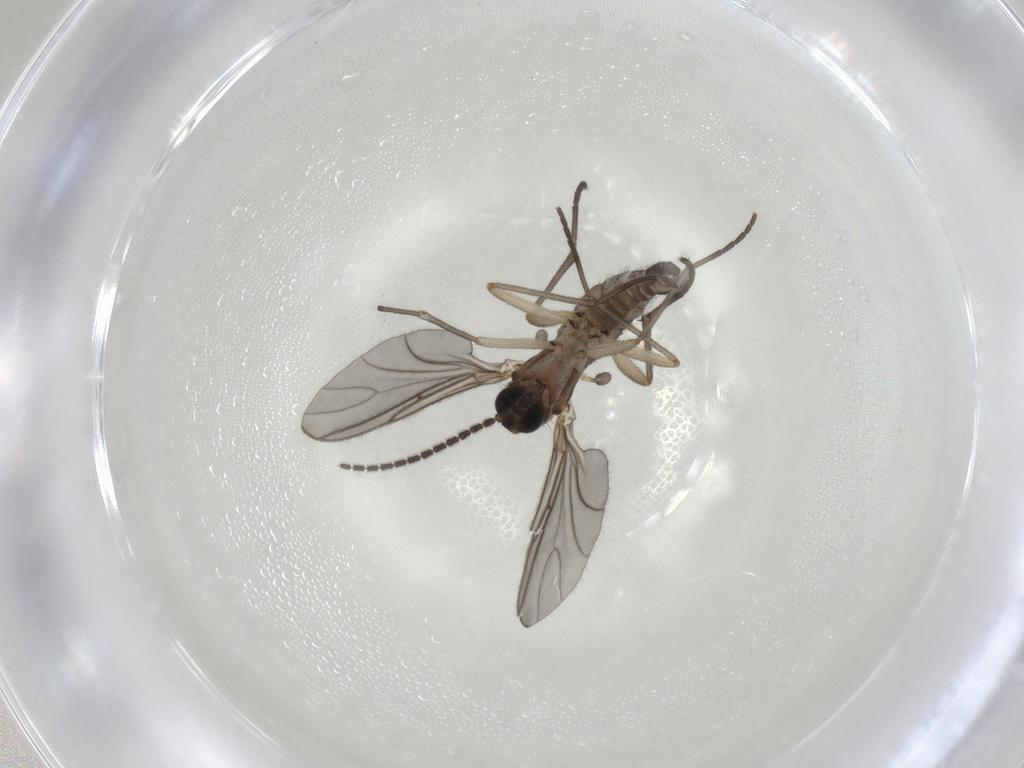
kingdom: Animalia
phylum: Arthropoda
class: Insecta
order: Diptera
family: Sciaridae
